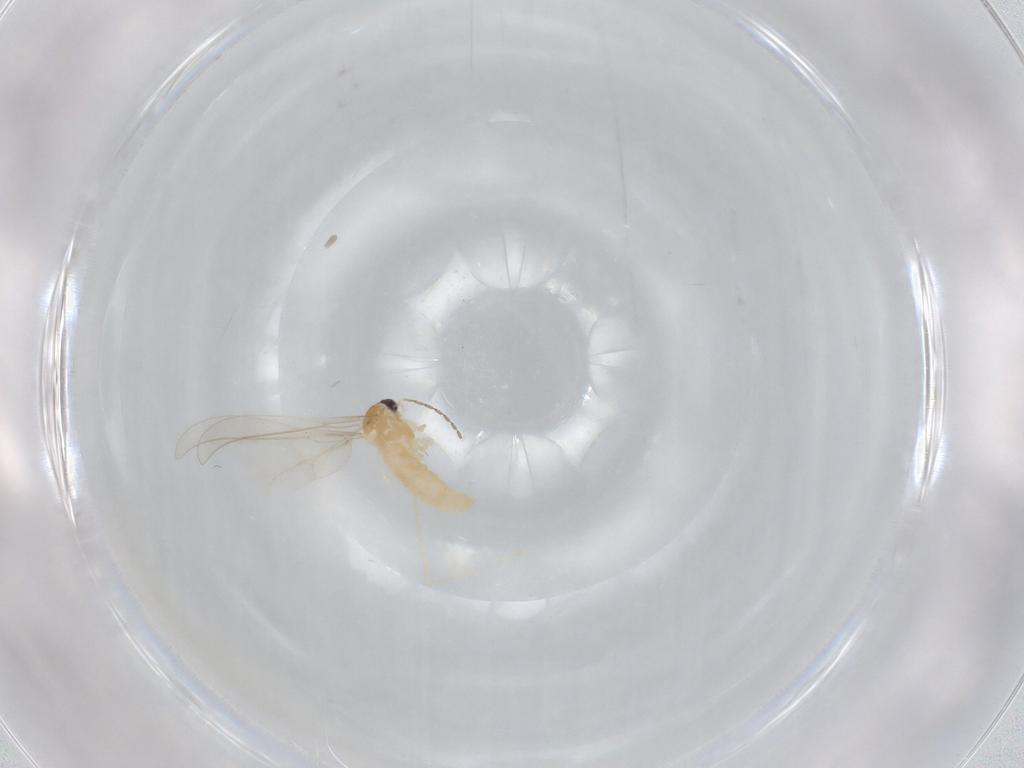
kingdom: Animalia
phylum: Arthropoda
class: Insecta
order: Diptera
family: Cecidomyiidae
